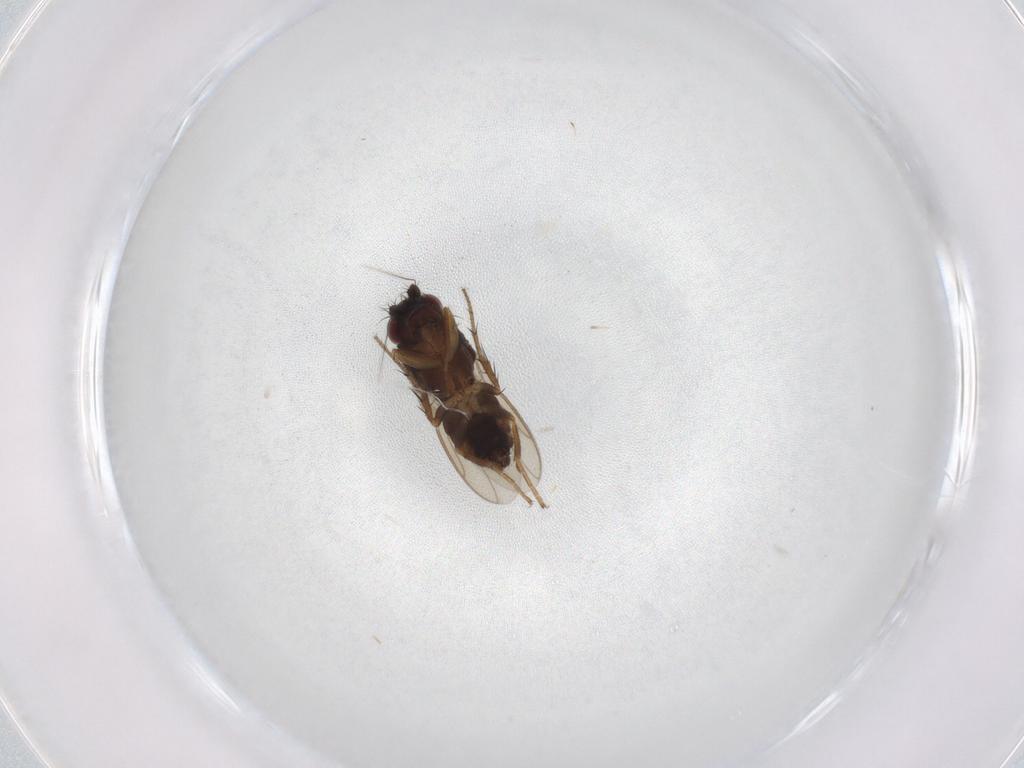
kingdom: Animalia
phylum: Arthropoda
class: Insecta
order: Diptera
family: Sphaeroceridae
